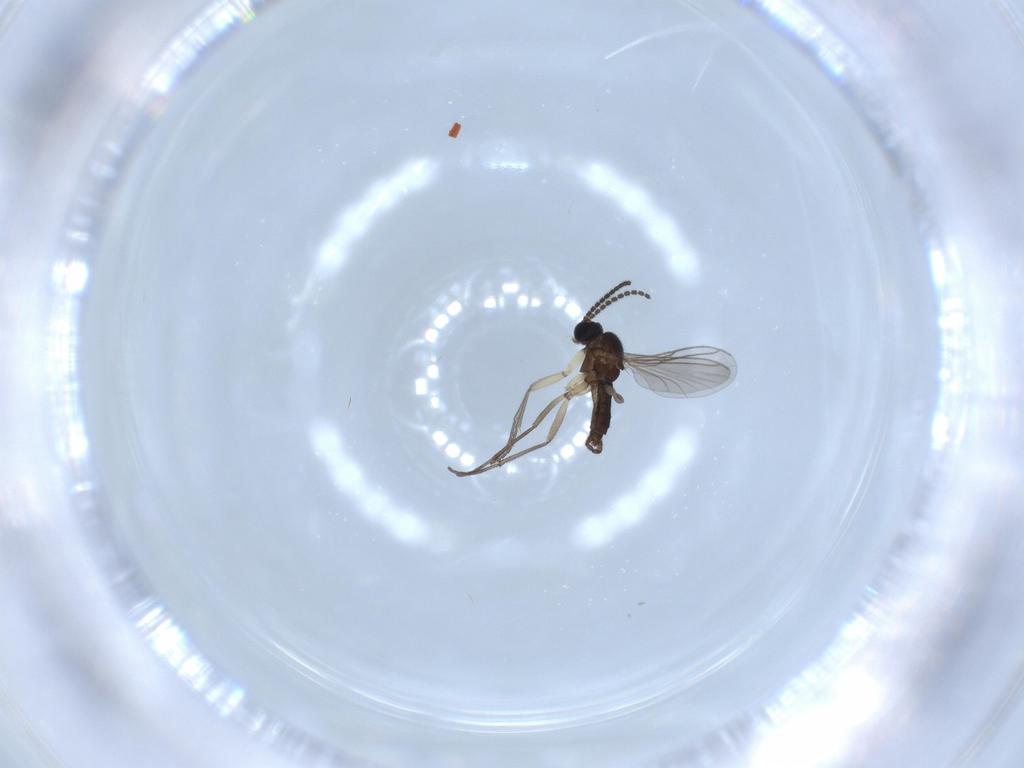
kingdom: Animalia
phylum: Arthropoda
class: Insecta
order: Diptera
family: Sciaridae
